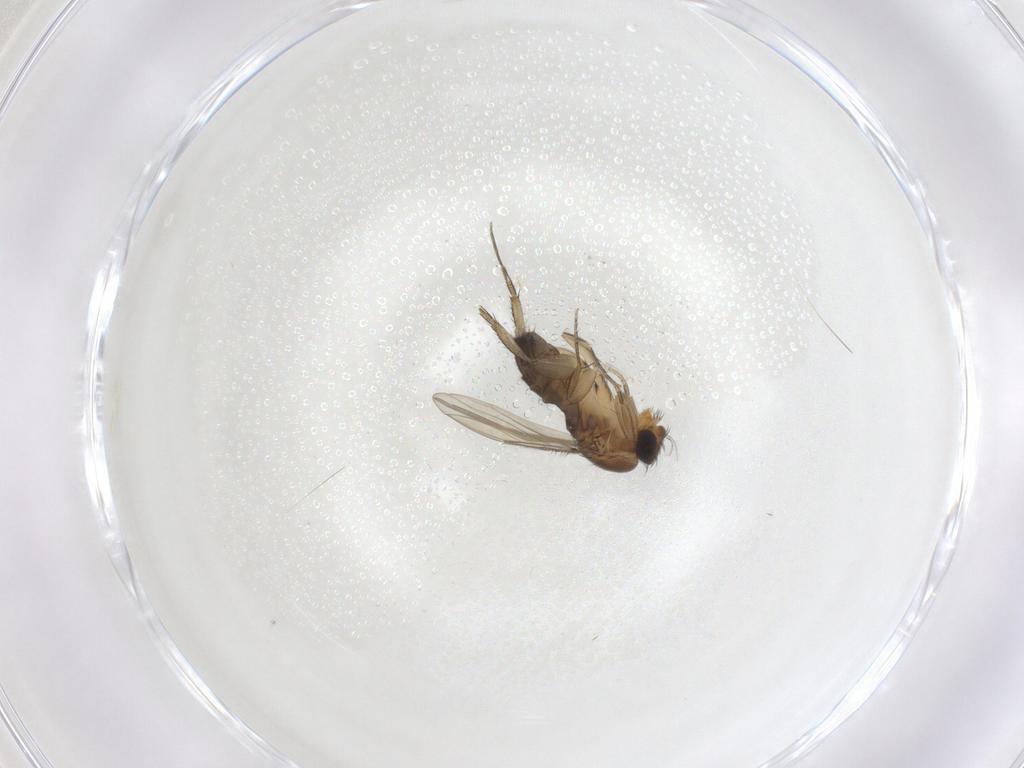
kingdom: Animalia
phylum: Arthropoda
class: Insecta
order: Diptera
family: Phoridae
